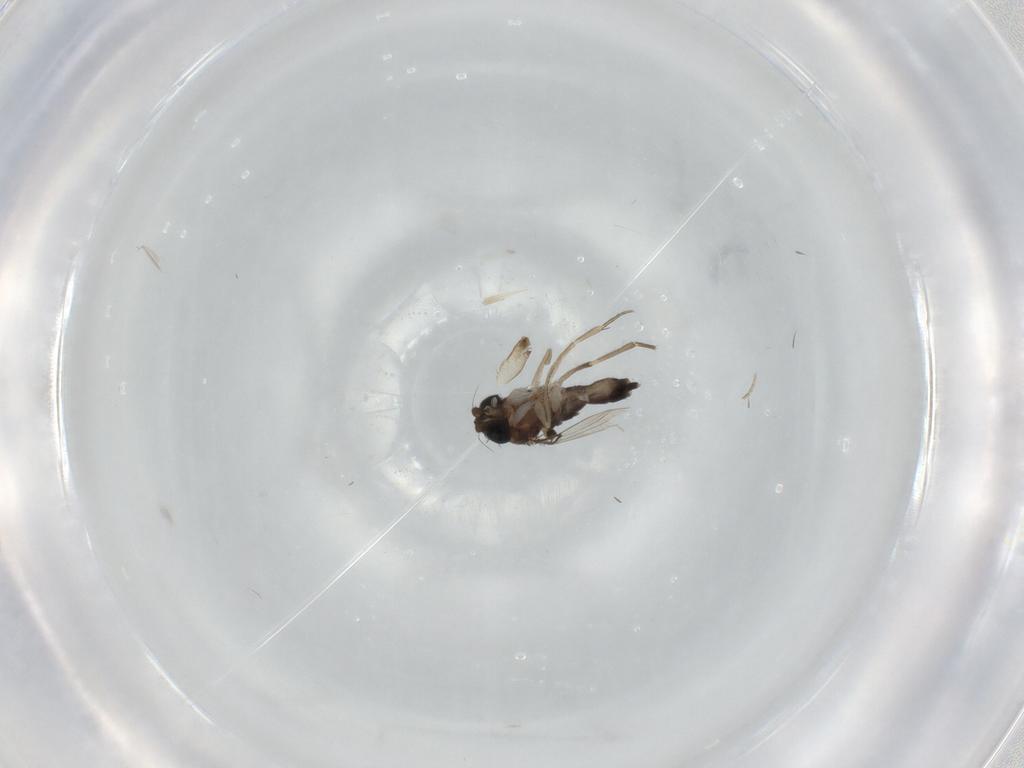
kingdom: Animalia
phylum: Arthropoda
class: Insecta
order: Diptera
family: Phoridae
